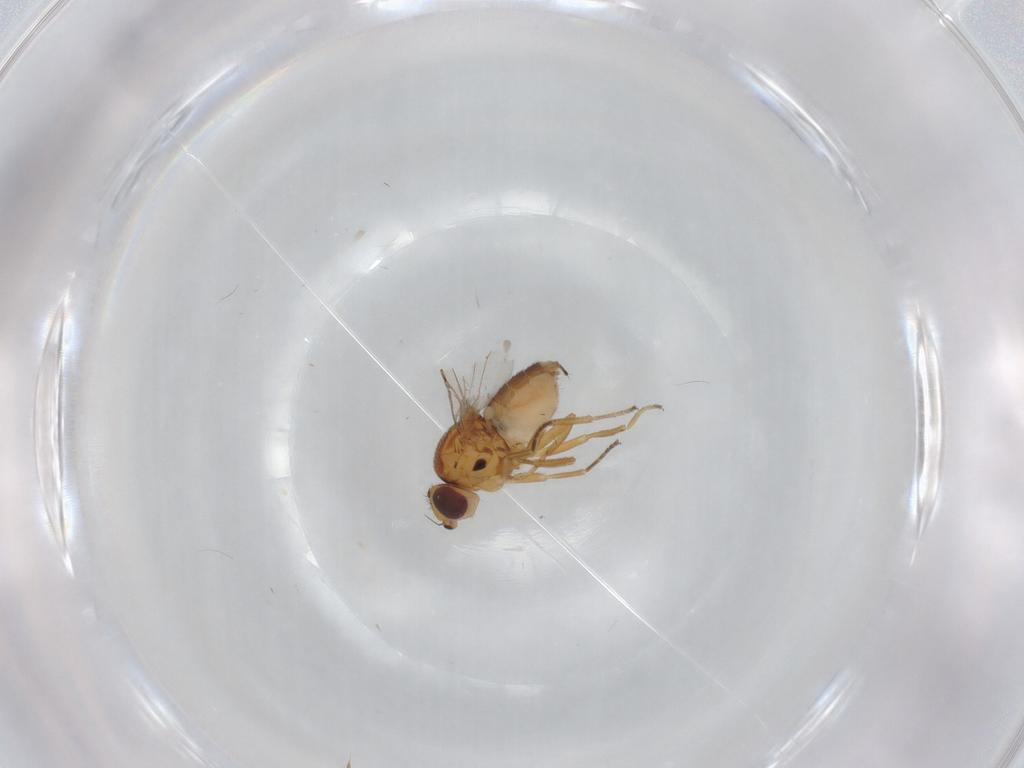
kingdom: Animalia
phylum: Arthropoda
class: Insecta
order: Diptera
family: Chloropidae
